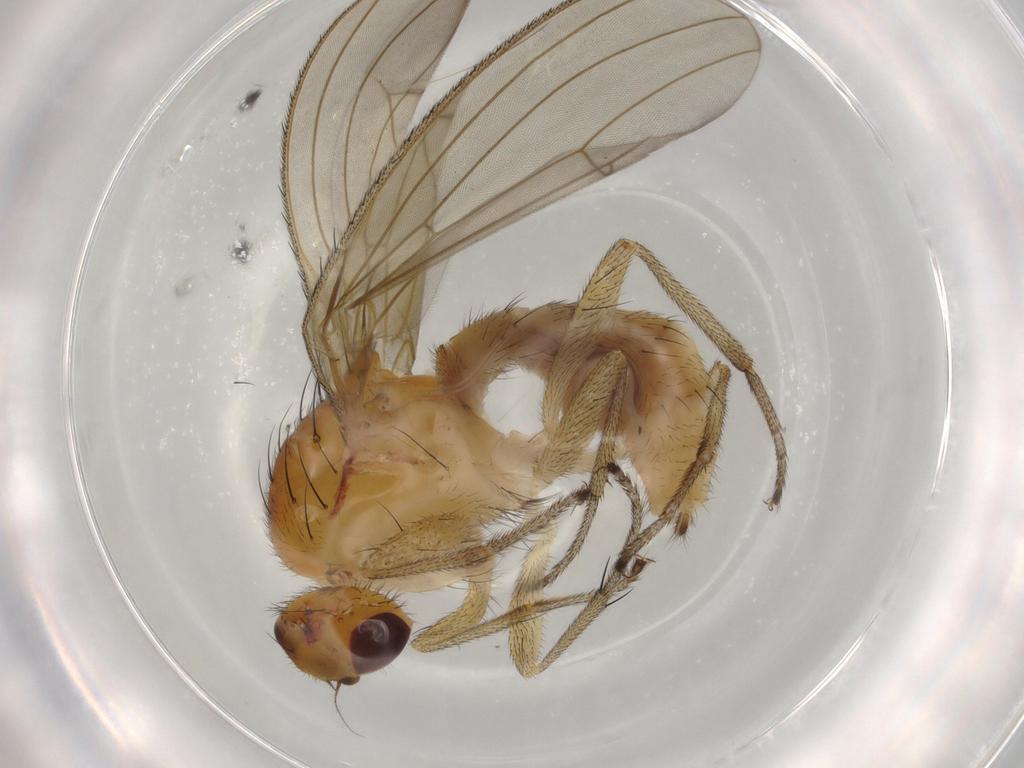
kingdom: Animalia
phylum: Arthropoda
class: Insecta
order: Diptera
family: Heleomyzidae
